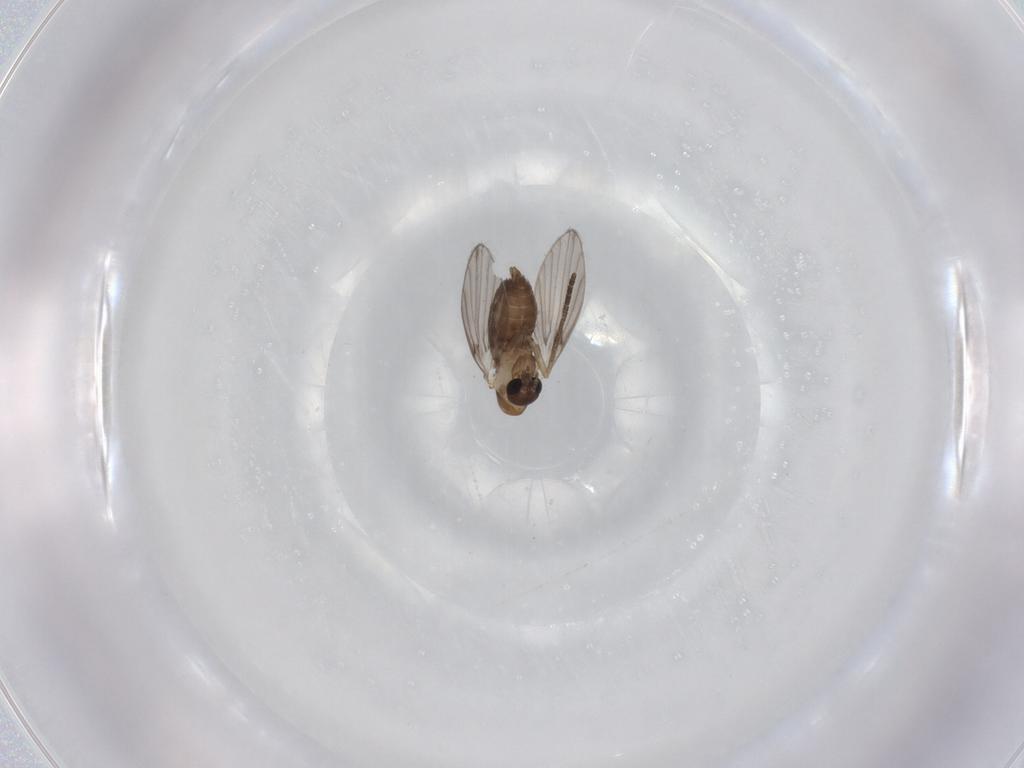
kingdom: Animalia
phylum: Arthropoda
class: Insecta
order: Diptera
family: Psychodidae
